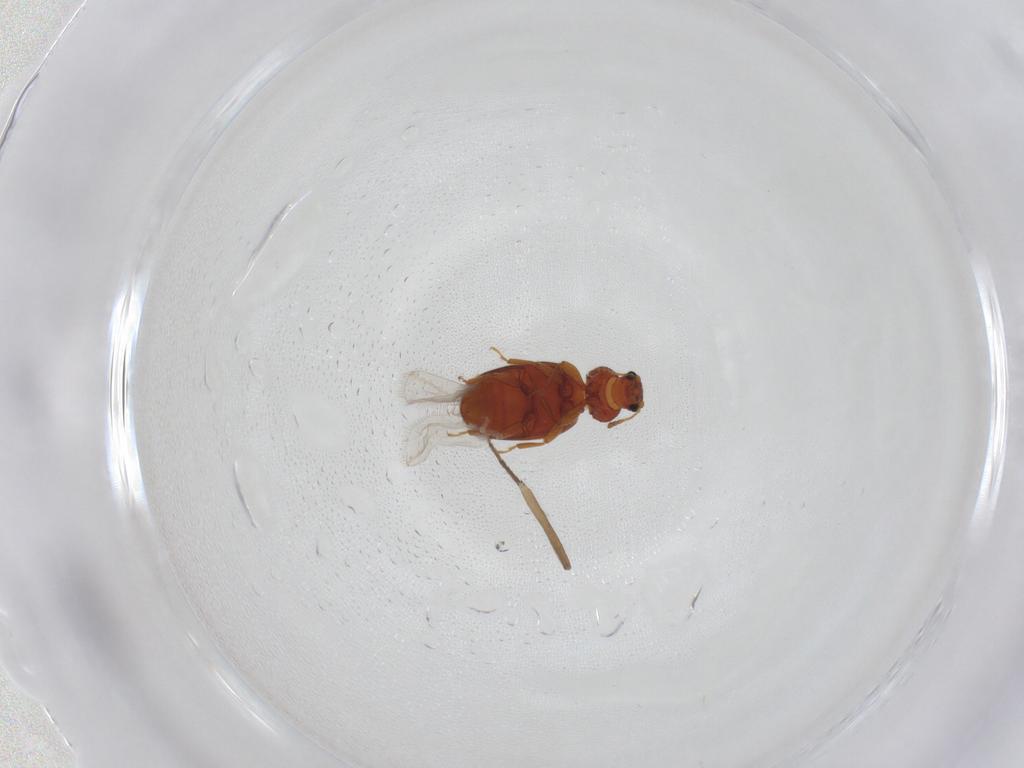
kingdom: Animalia
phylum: Arthropoda
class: Insecta
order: Coleoptera
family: Latridiidae
